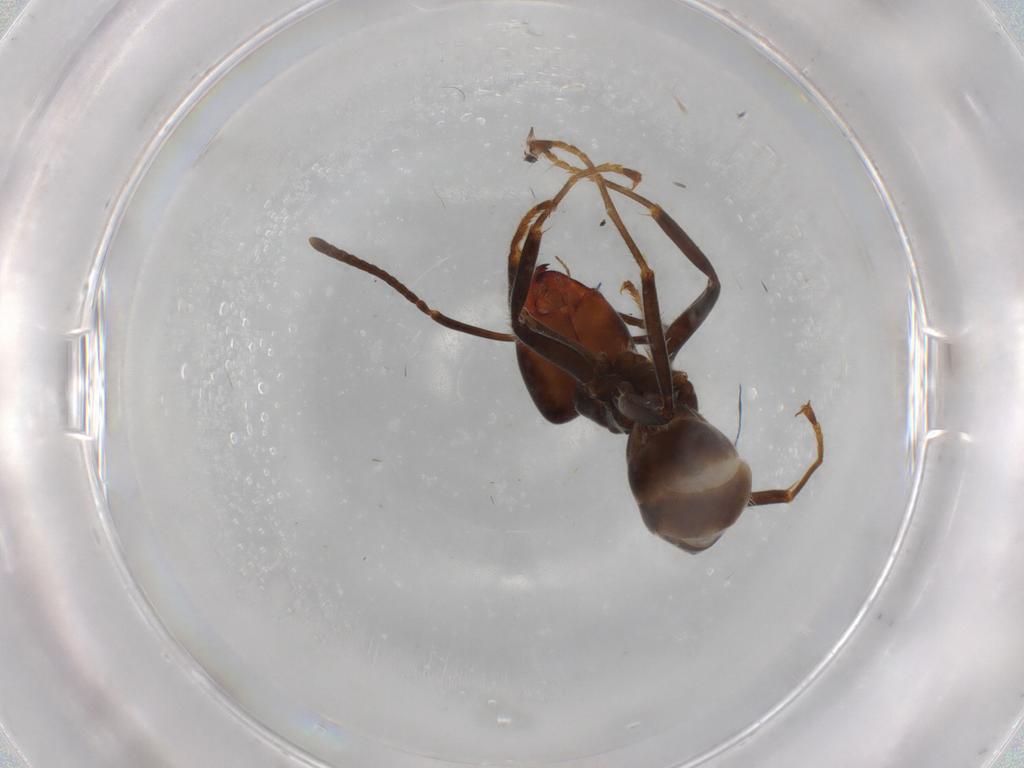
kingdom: Animalia
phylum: Arthropoda
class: Insecta
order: Hymenoptera
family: Formicidae
